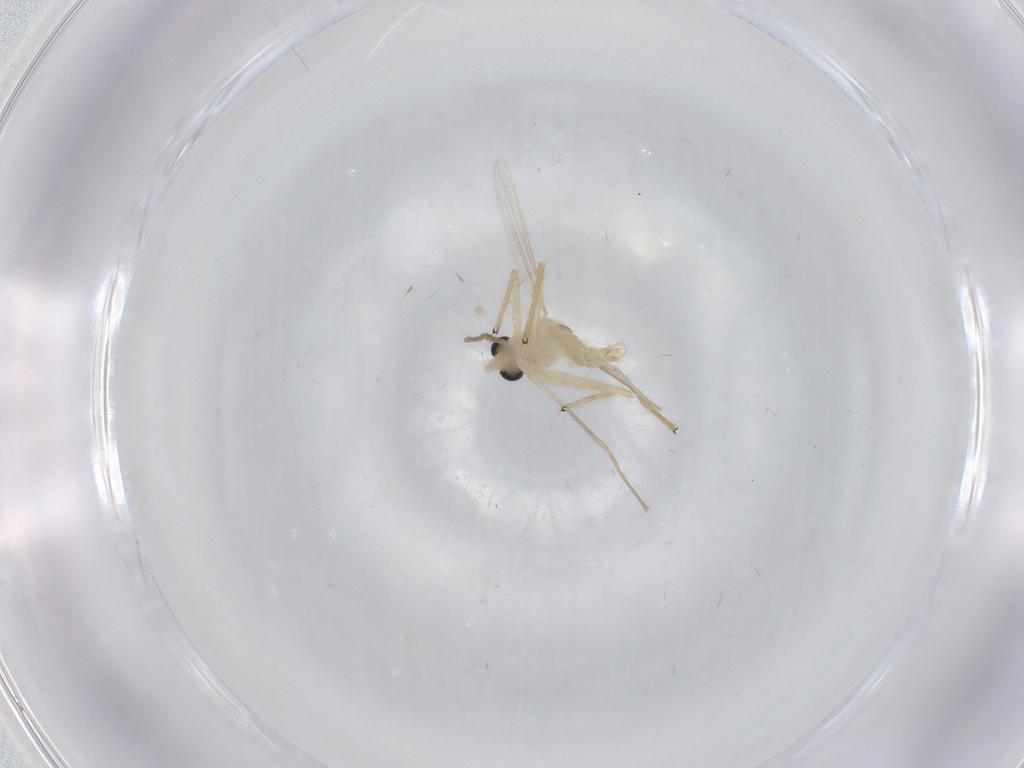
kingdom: Animalia
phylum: Arthropoda
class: Insecta
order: Diptera
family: Chironomidae
